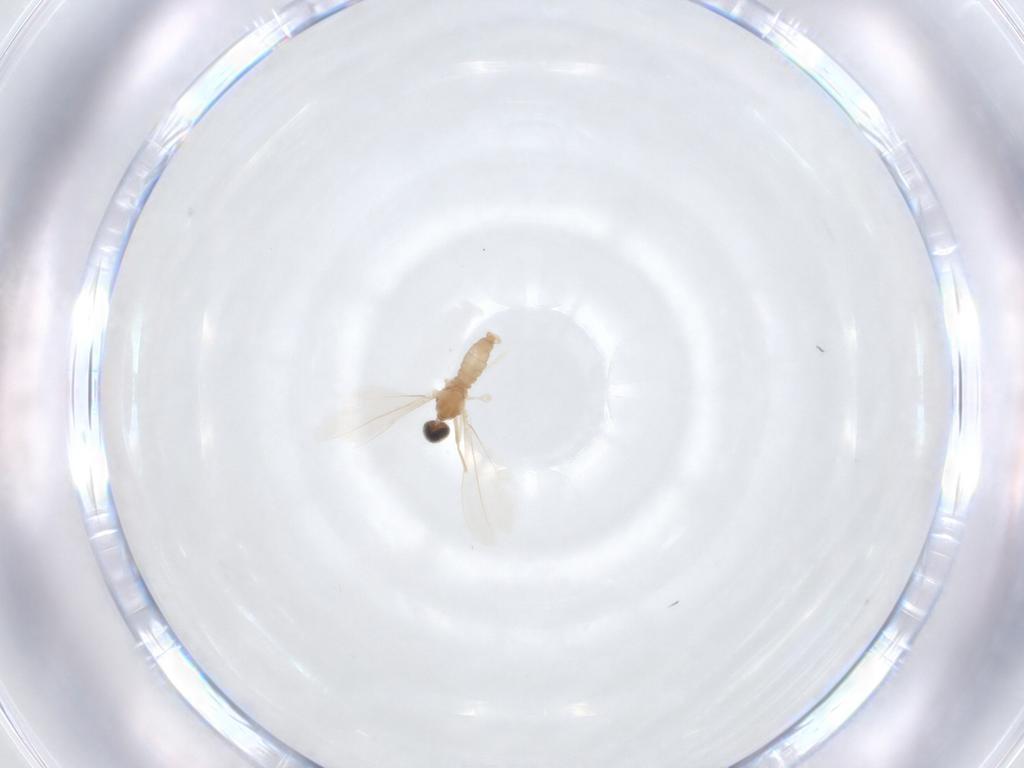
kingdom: Animalia
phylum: Arthropoda
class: Insecta
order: Diptera
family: Cecidomyiidae
